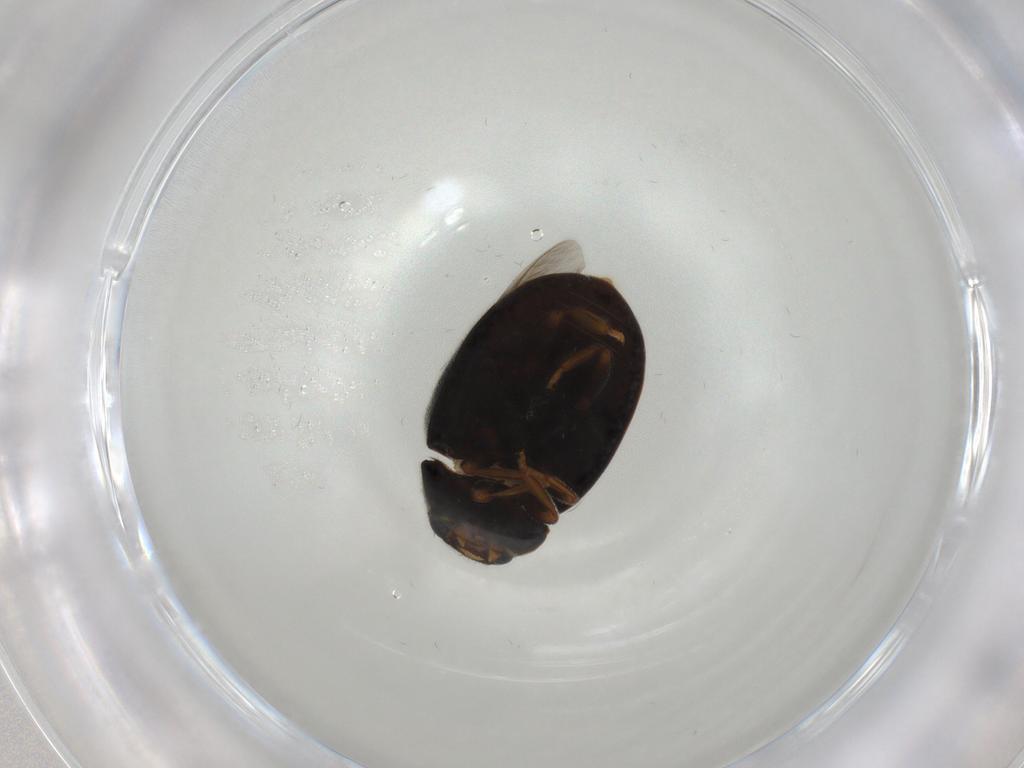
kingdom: Animalia
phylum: Arthropoda
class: Insecta
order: Coleoptera
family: Coccinellidae
